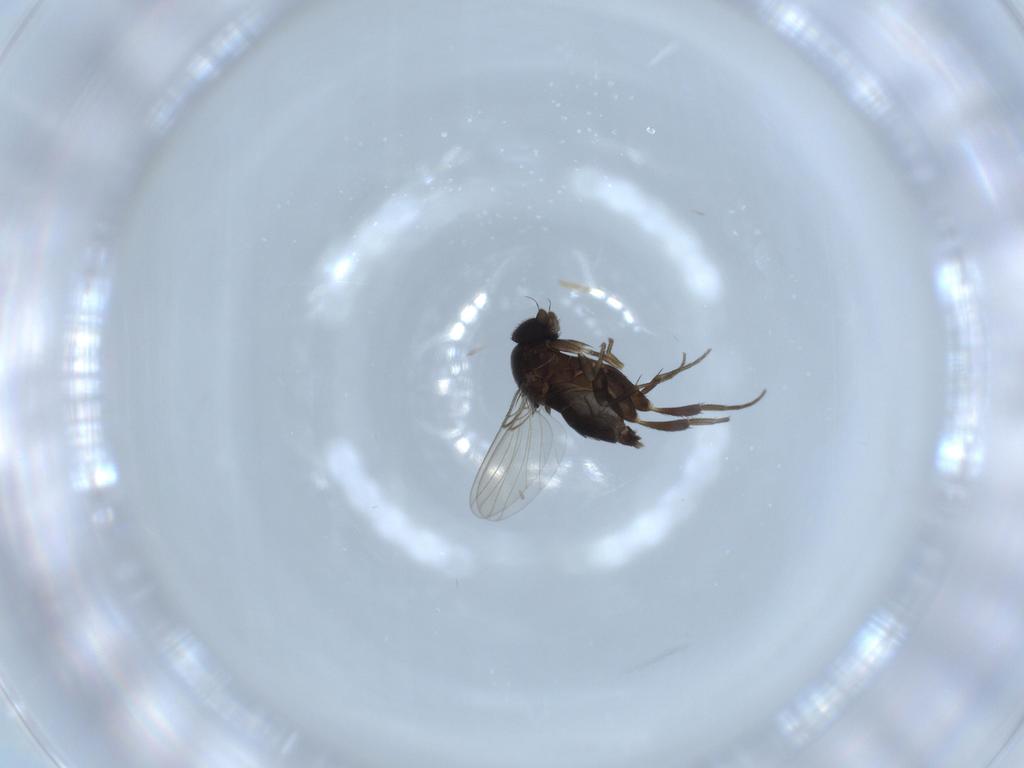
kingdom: Animalia
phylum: Arthropoda
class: Insecta
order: Diptera
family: Phoridae
